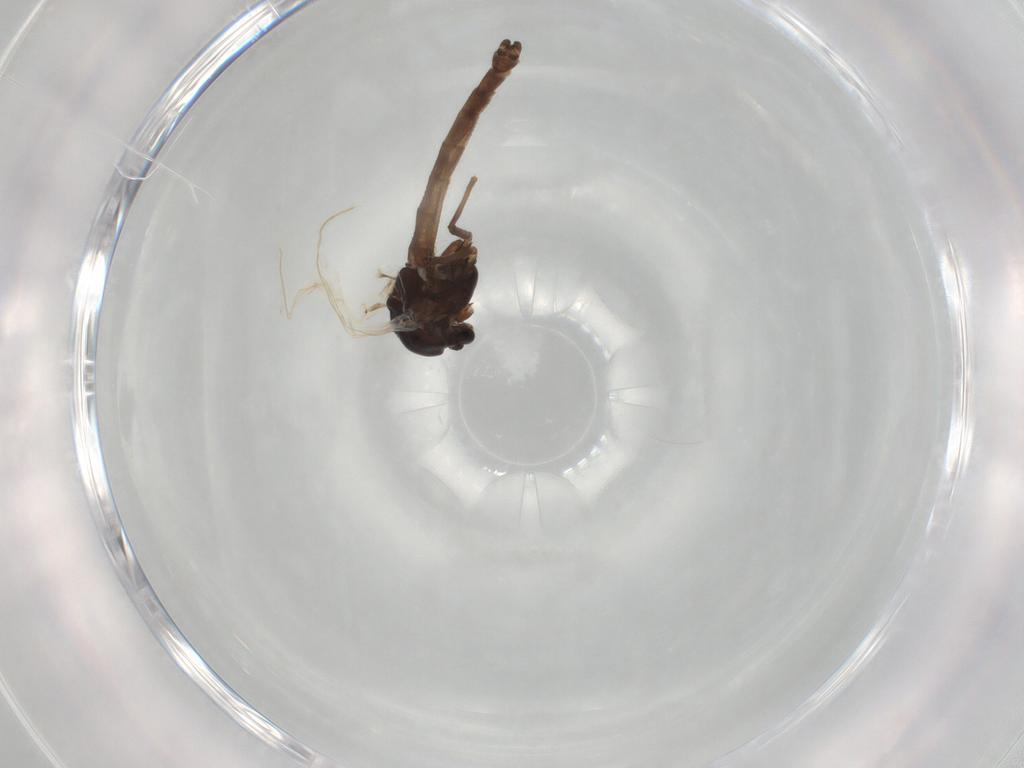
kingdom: Animalia
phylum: Arthropoda
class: Insecta
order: Diptera
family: Chironomidae
